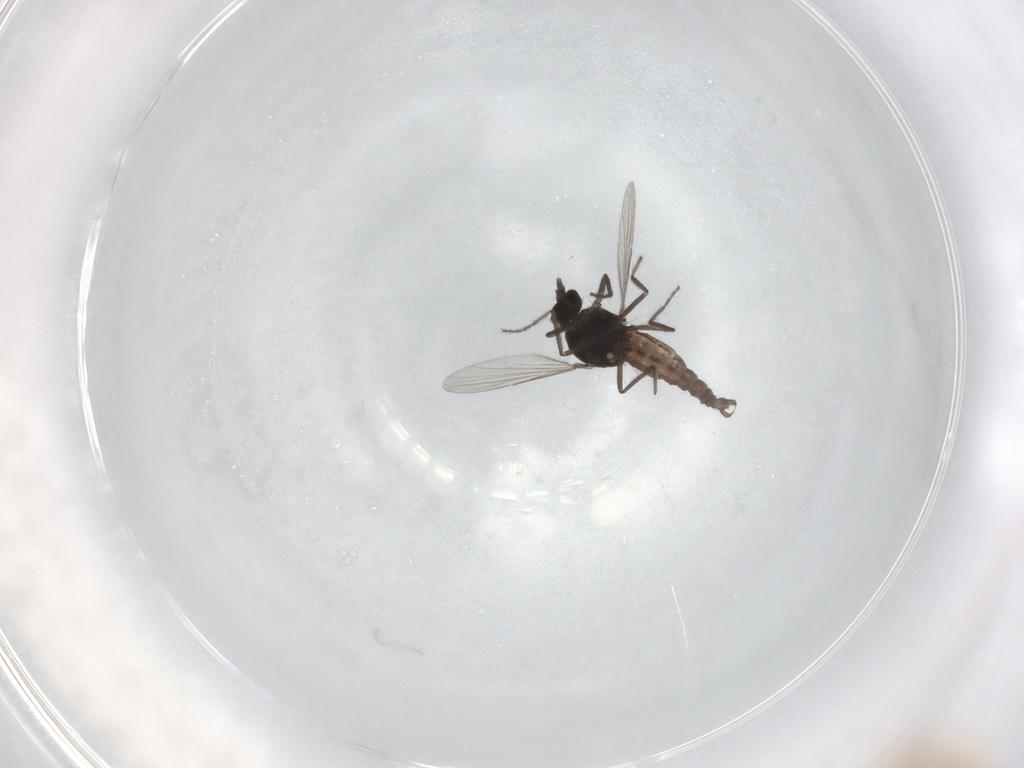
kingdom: Animalia
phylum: Arthropoda
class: Insecta
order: Diptera
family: Ceratopogonidae
